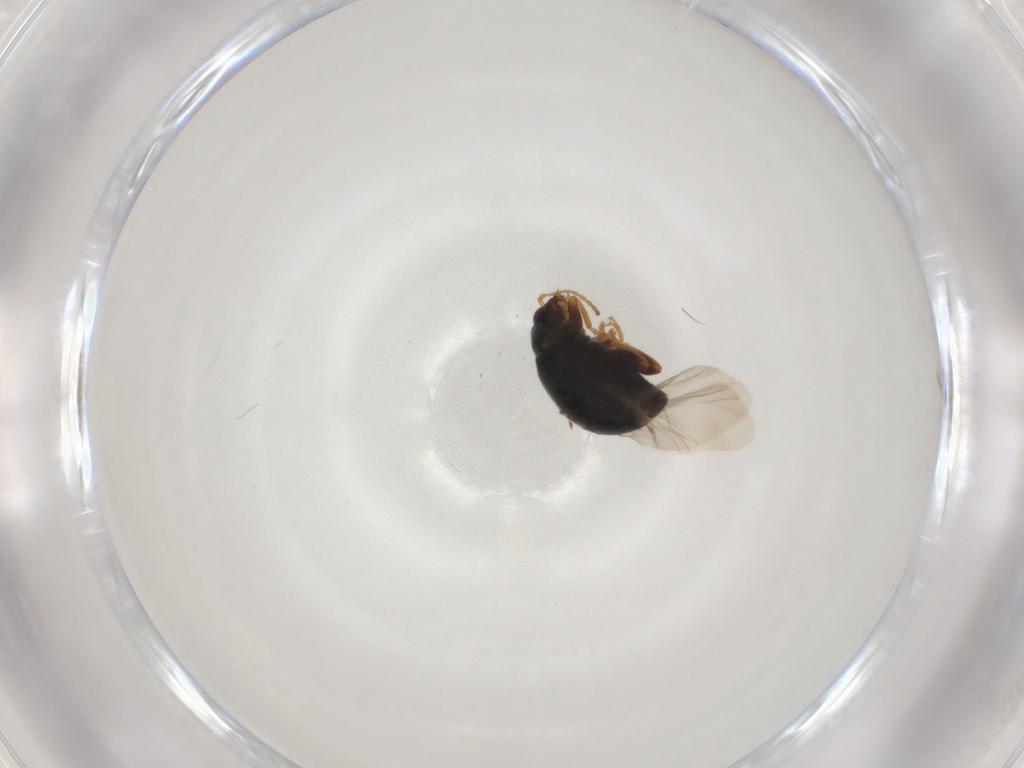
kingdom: Animalia
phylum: Arthropoda
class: Insecta
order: Coleoptera
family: Chrysomelidae
